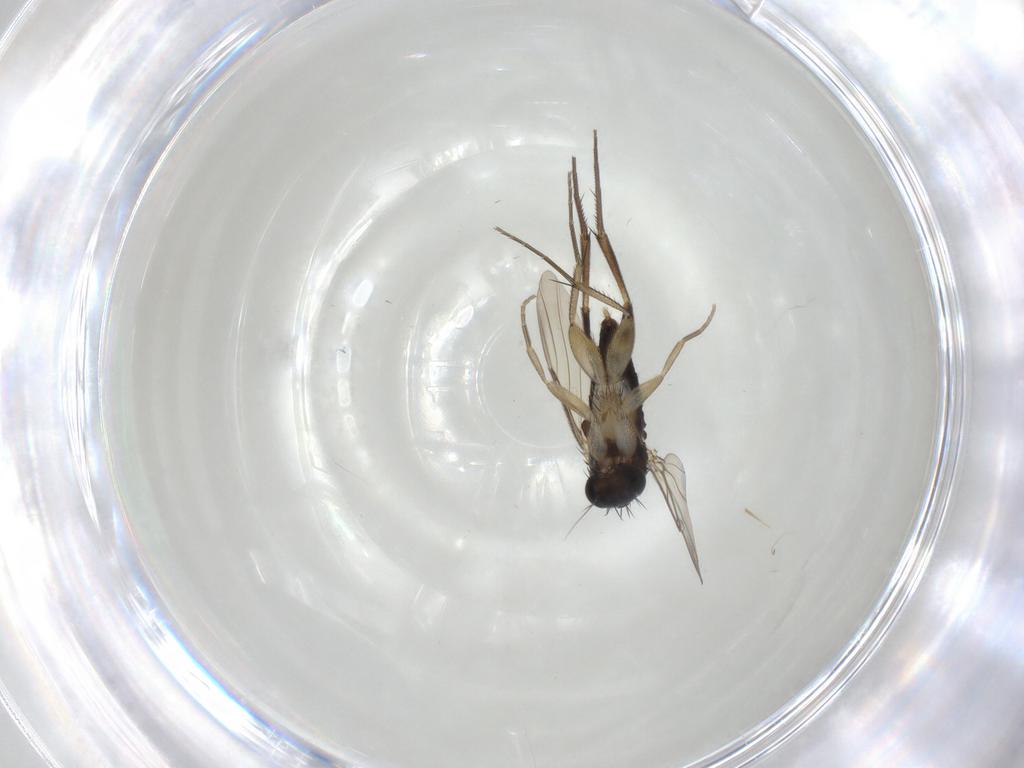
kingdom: Animalia
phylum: Arthropoda
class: Insecta
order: Diptera
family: Phoridae
